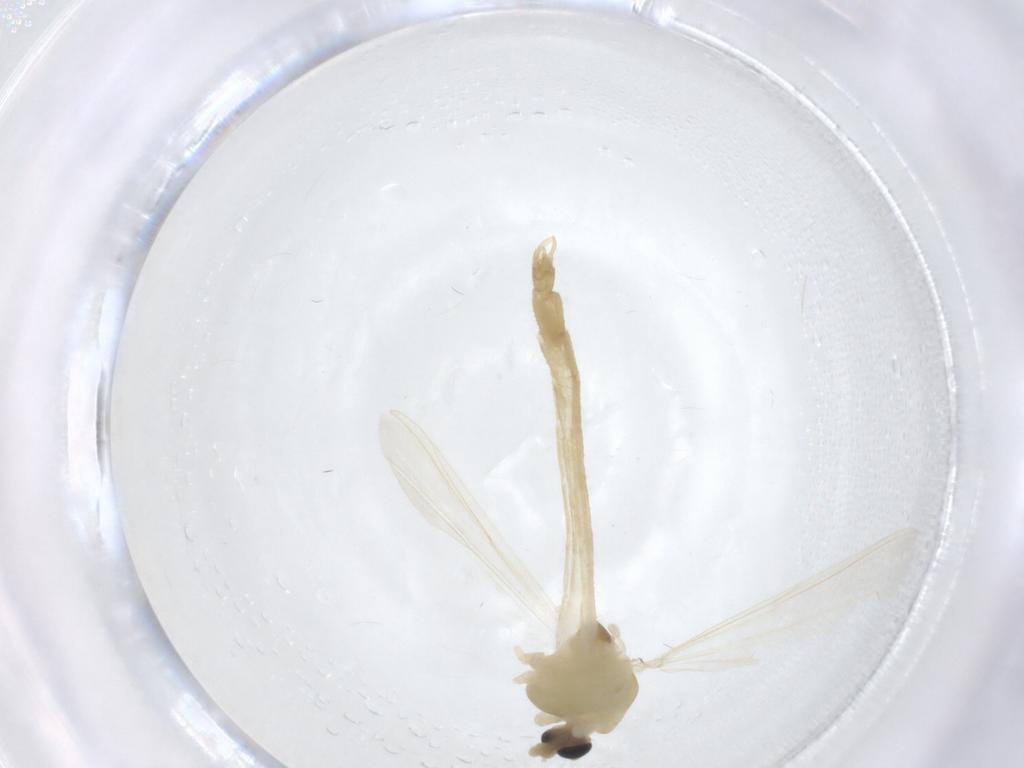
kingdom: Animalia
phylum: Arthropoda
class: Insecta
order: Diptera
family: Chironomidae
